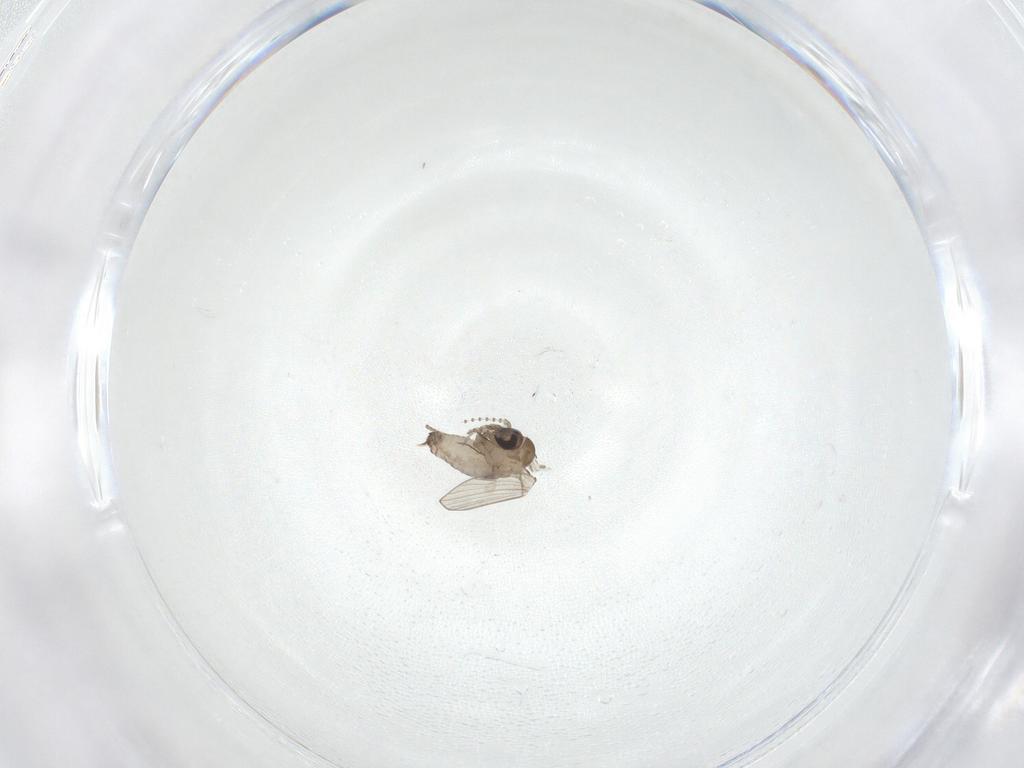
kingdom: Animalia
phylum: Arthropoda
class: Insecta
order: Diptera
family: Psychodidae
